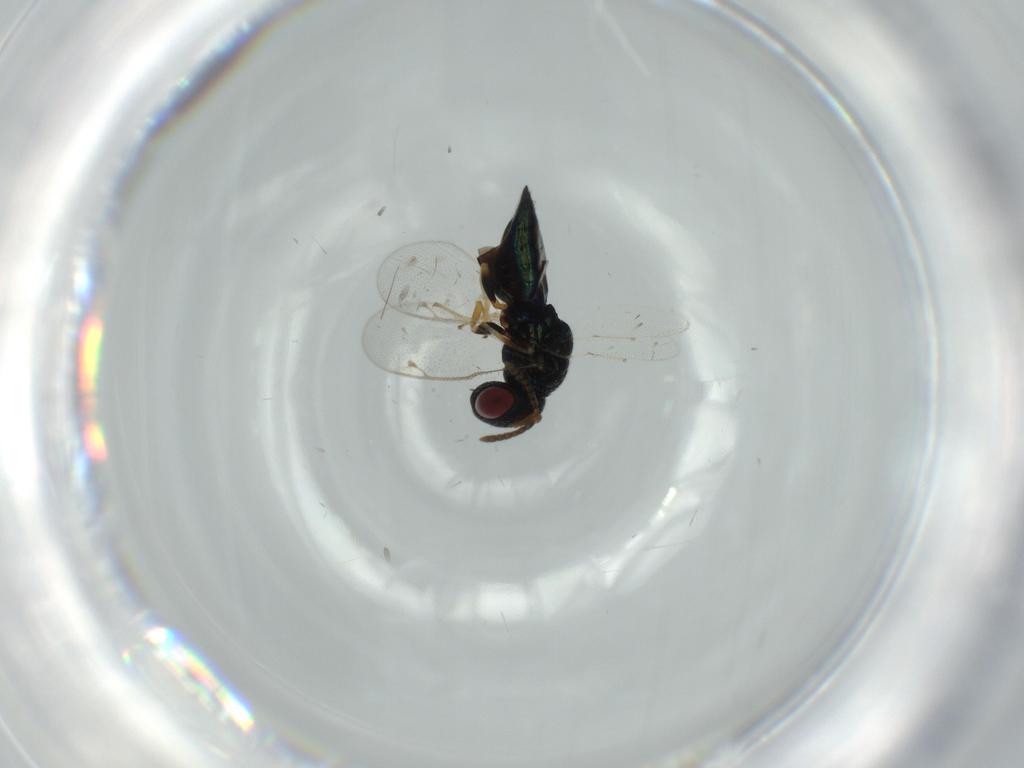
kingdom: Animalia
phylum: Arthropoda
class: Insecta
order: Hymenoptera
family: Pteromalidae
